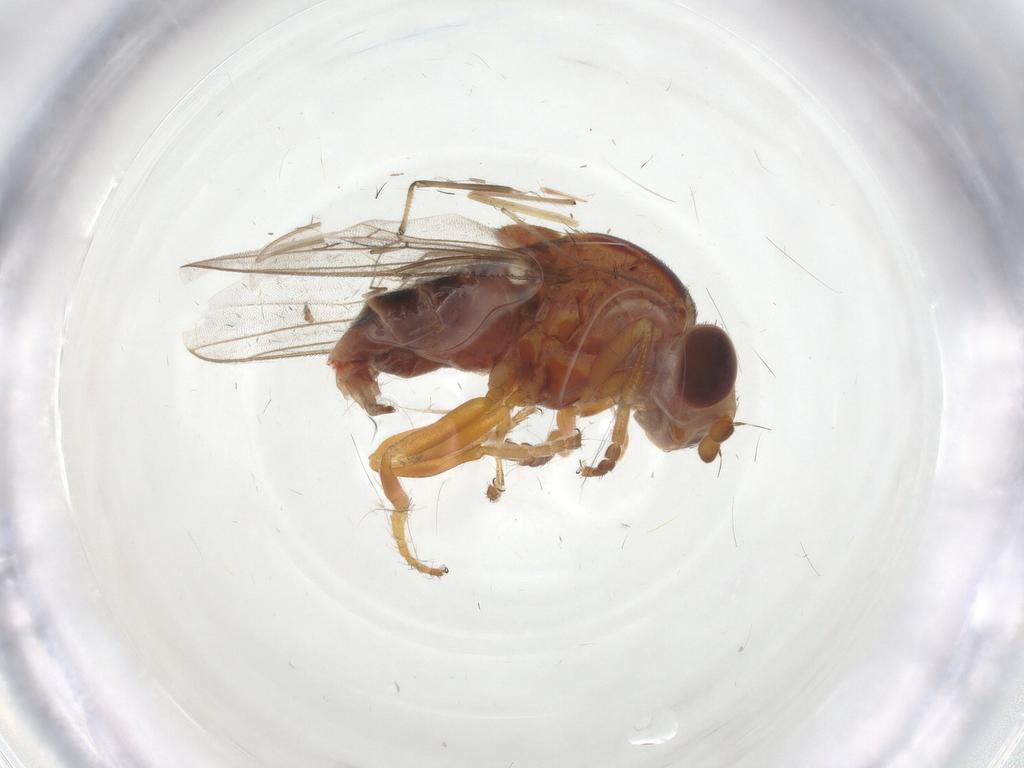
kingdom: Animalia
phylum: Arthropoda
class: Insecta
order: Diptera
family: Chloropidae
